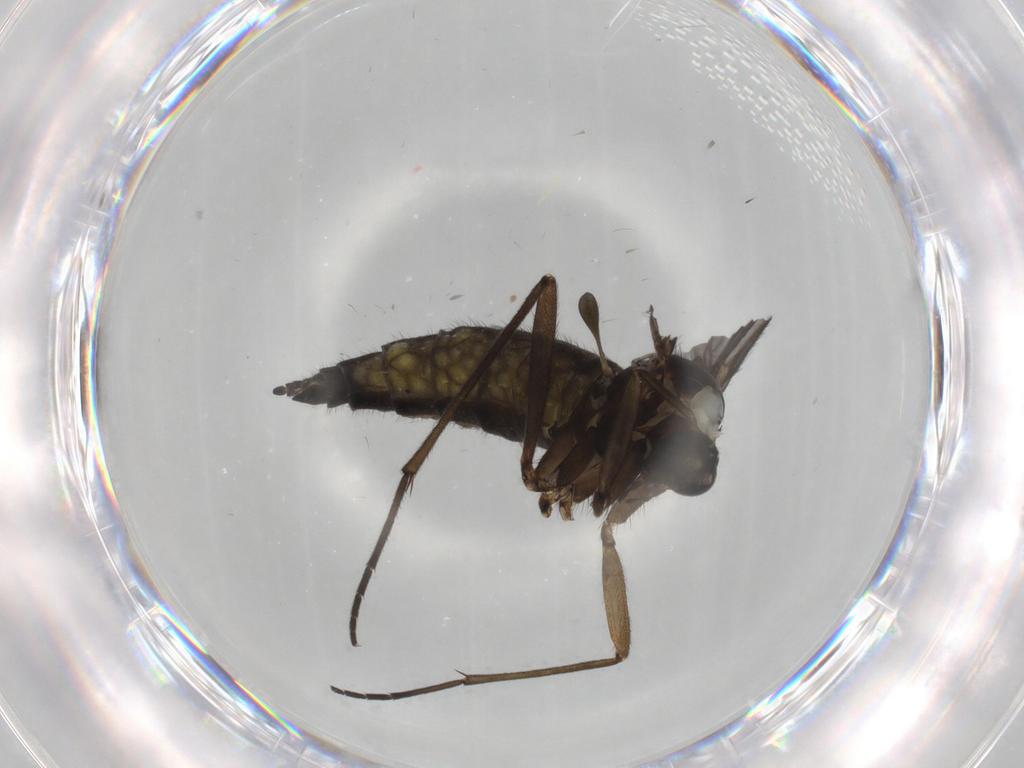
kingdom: Animalia
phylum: Arthropoda
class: Insecta
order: Diptera
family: Sciaridae
